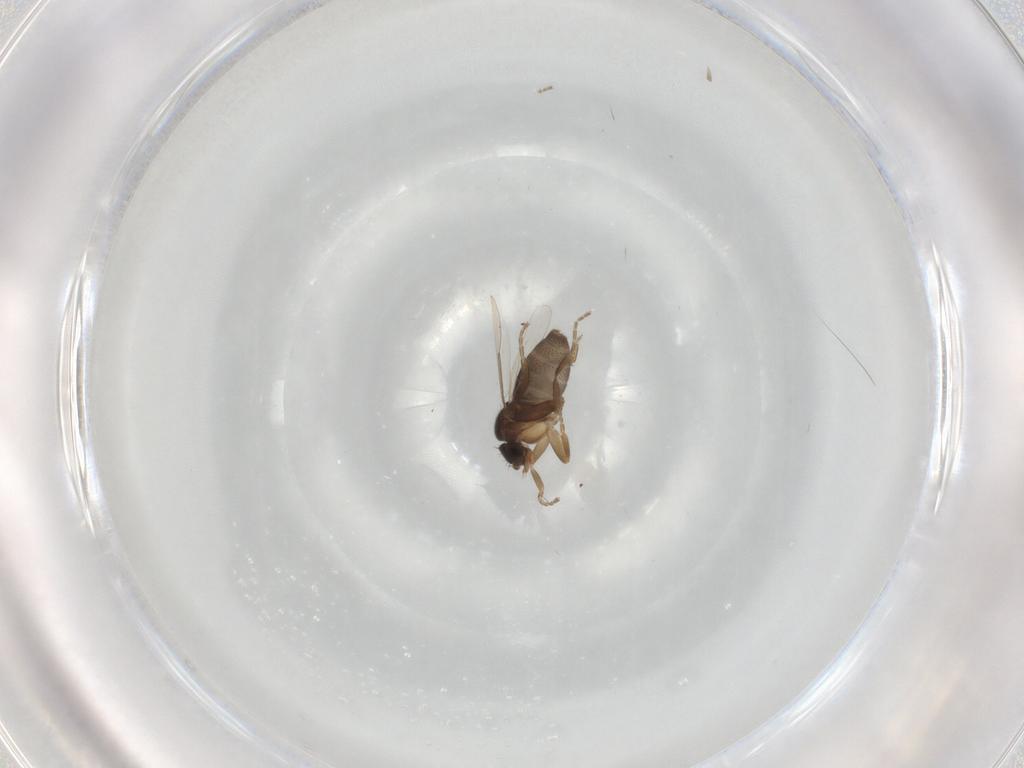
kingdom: Animalia
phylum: Arthropoda
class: Insecta
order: Diptera
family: Phoridae
